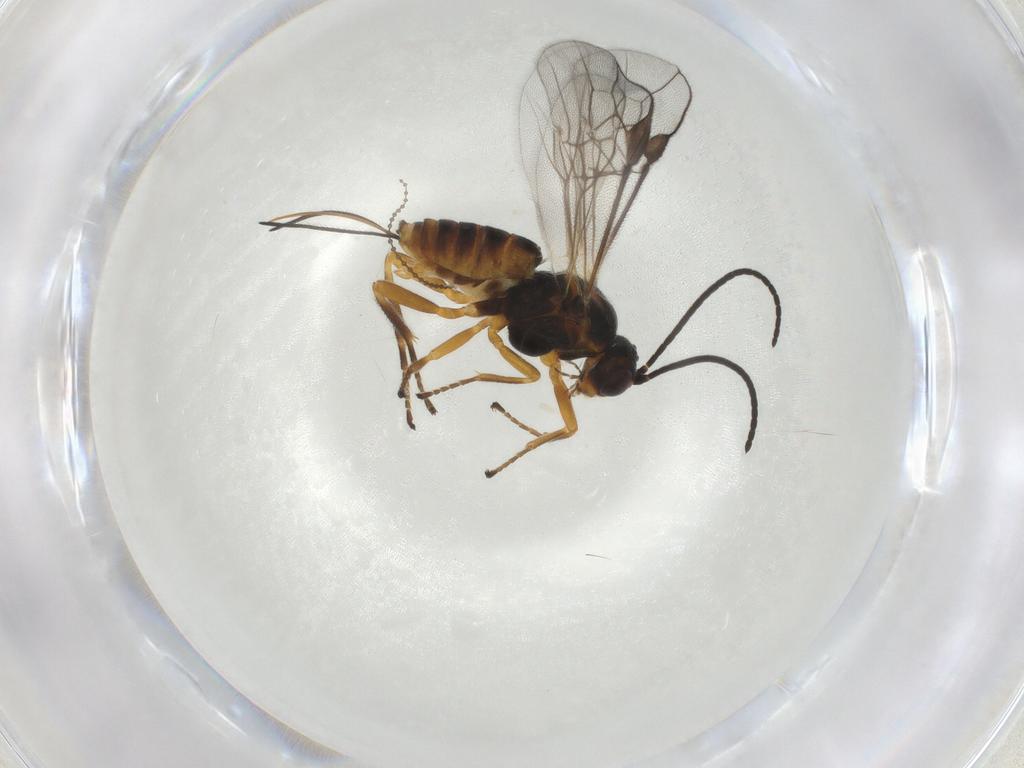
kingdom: Animalia
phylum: Arthropoda
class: Insecta
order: Hymenoptera
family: Braconidae
